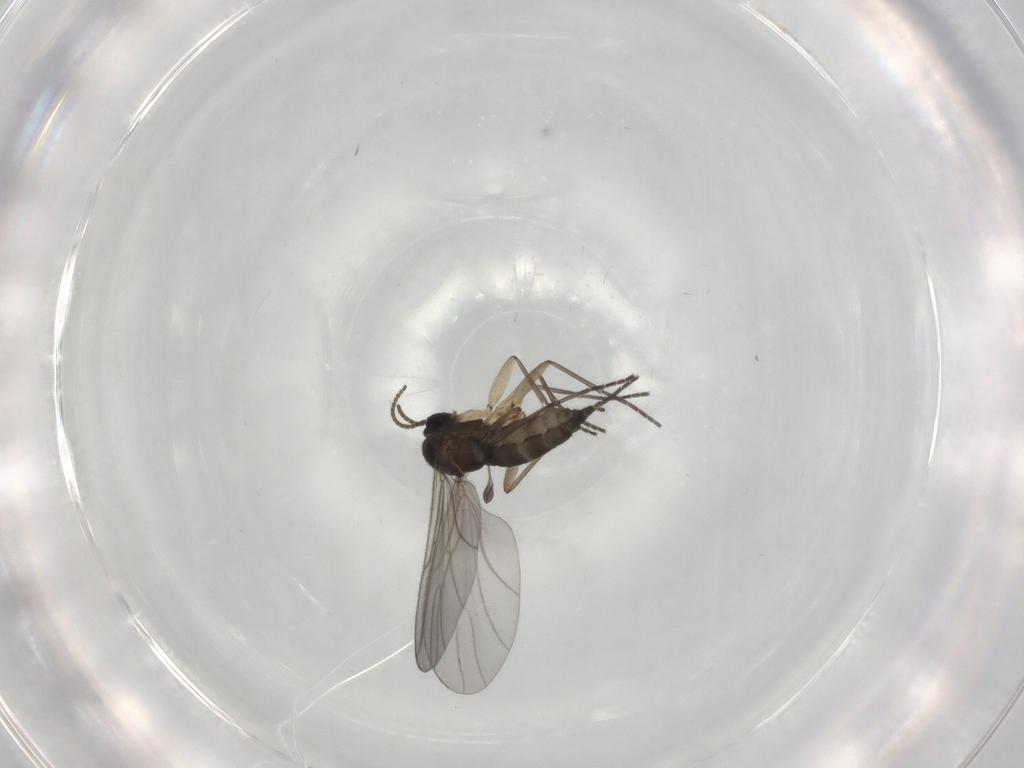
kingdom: Animalia
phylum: Arthropoda
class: Insecta
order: Diptera
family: Sciaridae
